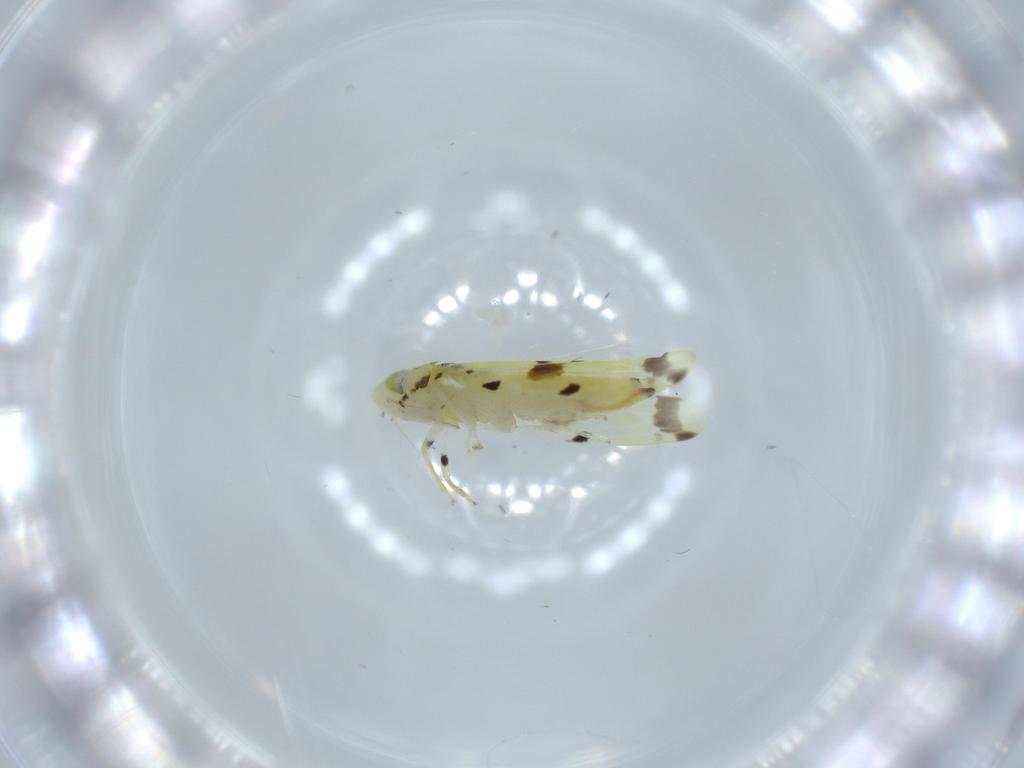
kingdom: Animalia
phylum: Arthropoda
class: Insecta
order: Hemiptera
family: Cicadellidae
